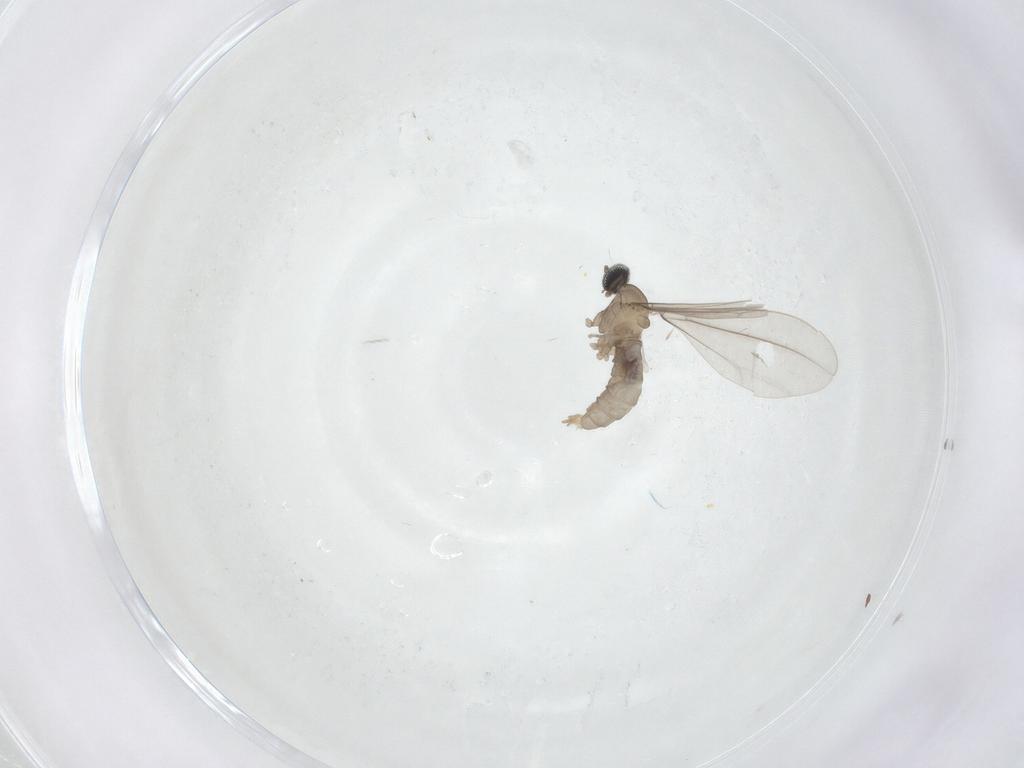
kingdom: Animalia
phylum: Arthropoda
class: Insecta
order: Diptera
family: Cecidomyiidae
